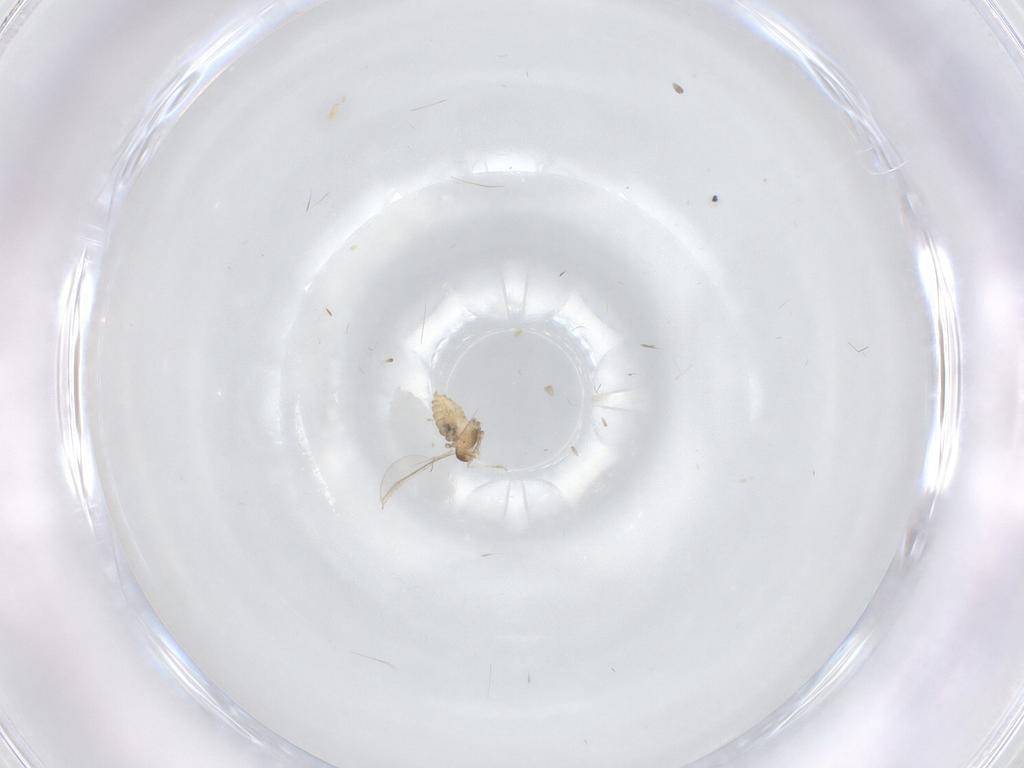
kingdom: Animalia
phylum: Arthropoda
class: Insecta
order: Diptera
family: Cecidomyiidae
